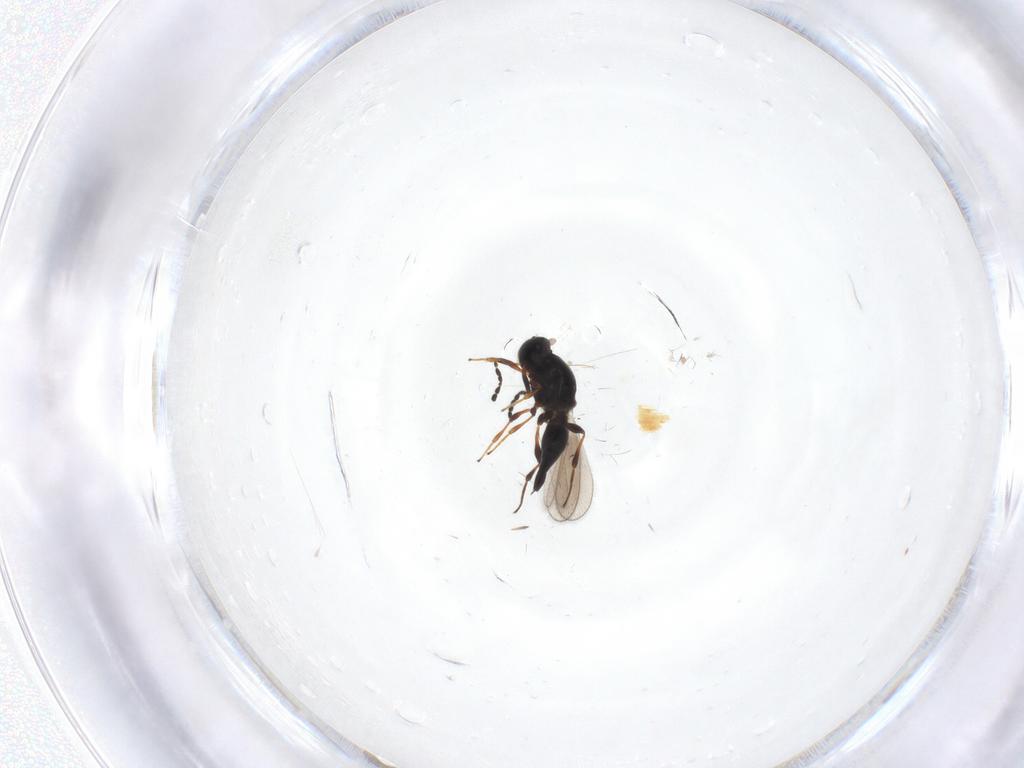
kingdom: Animalia
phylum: Arthropoda
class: Insecta
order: Hymenoptera
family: Platygastridae
